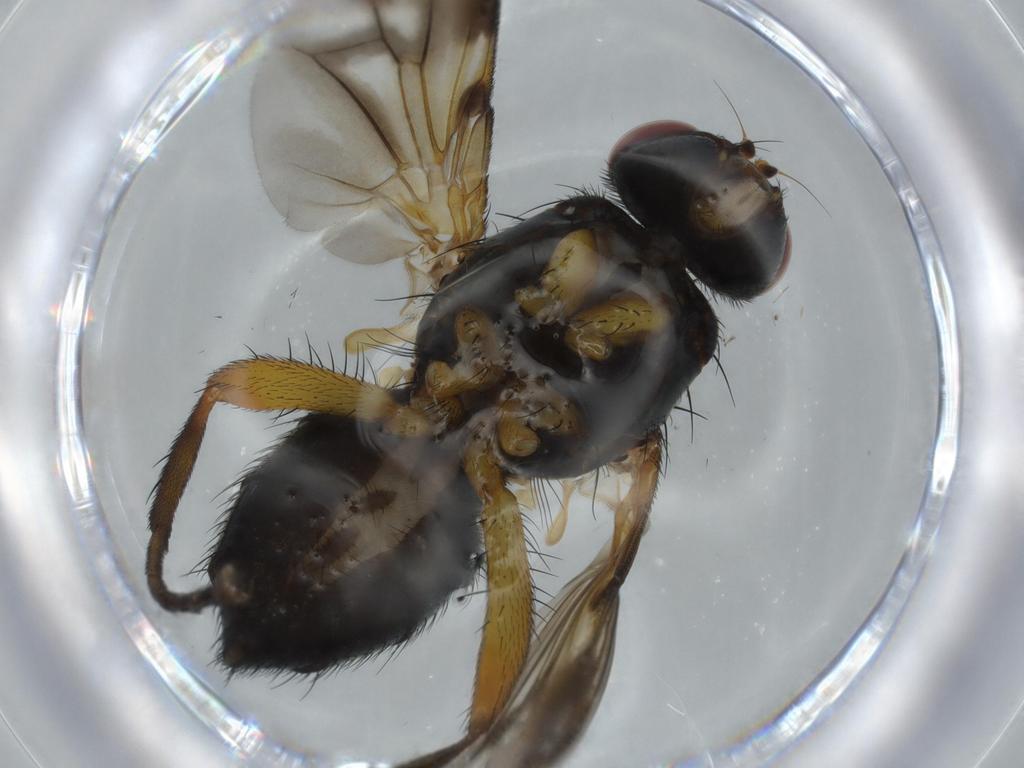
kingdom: Animalia
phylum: Arthropoda
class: Insecta
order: Diptera
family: Calliphoridae
